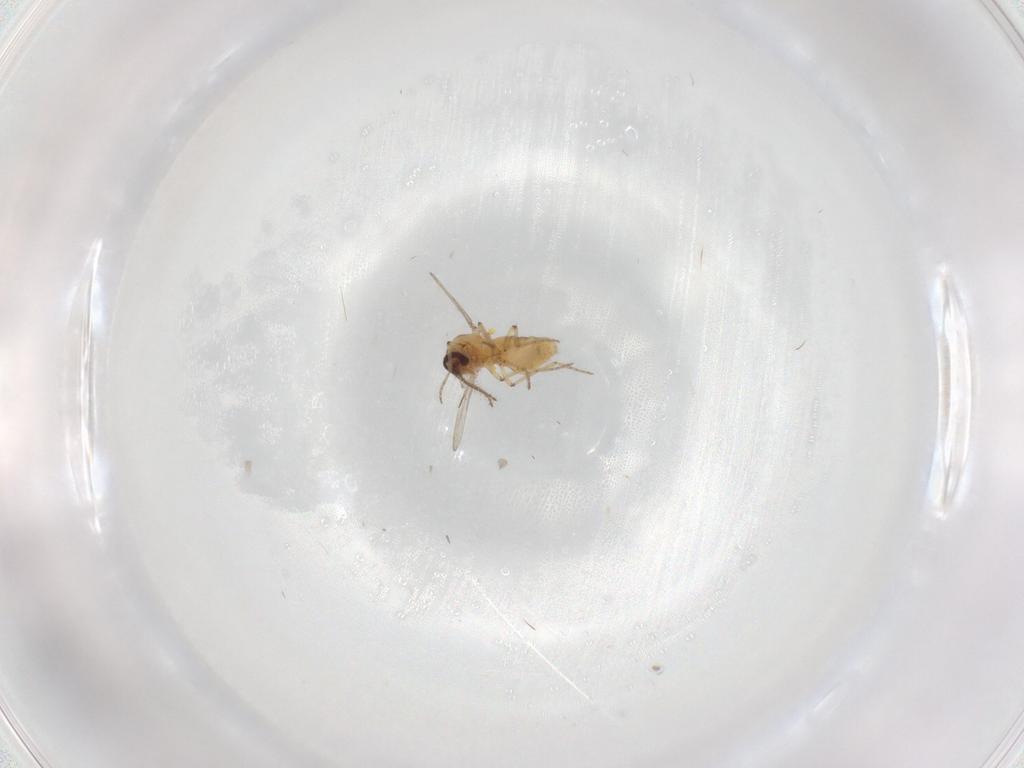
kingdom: Animalia
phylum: Arthropoda
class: Insecta
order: Diptera
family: Ceratopogonidae
